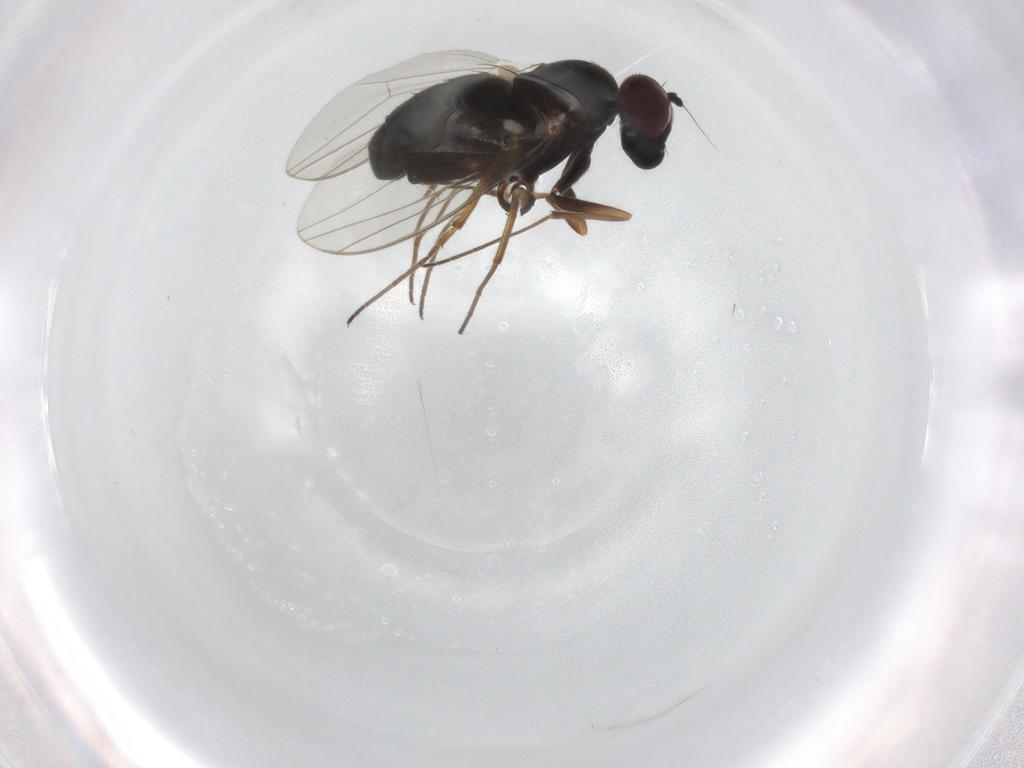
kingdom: Animalia
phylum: Arthropoda
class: Insecta
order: Diptera
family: Dolichopodidae
